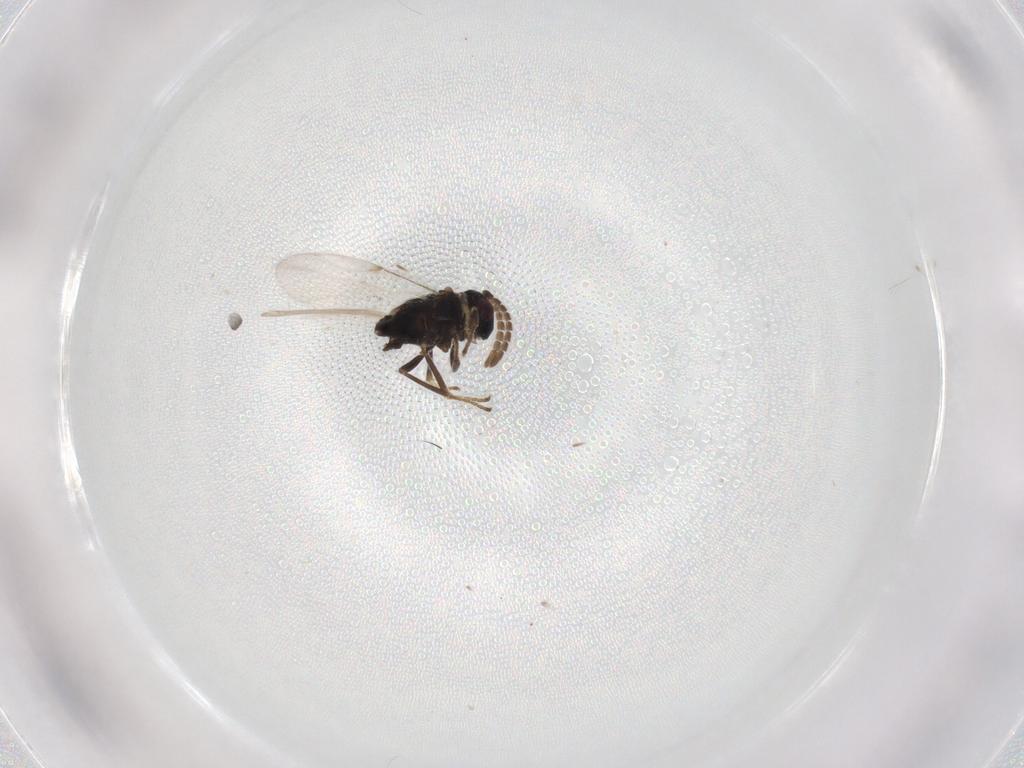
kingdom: Animalia
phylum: Arthropoda
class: Insecta
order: Hymenoptera
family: Encyrtidae
